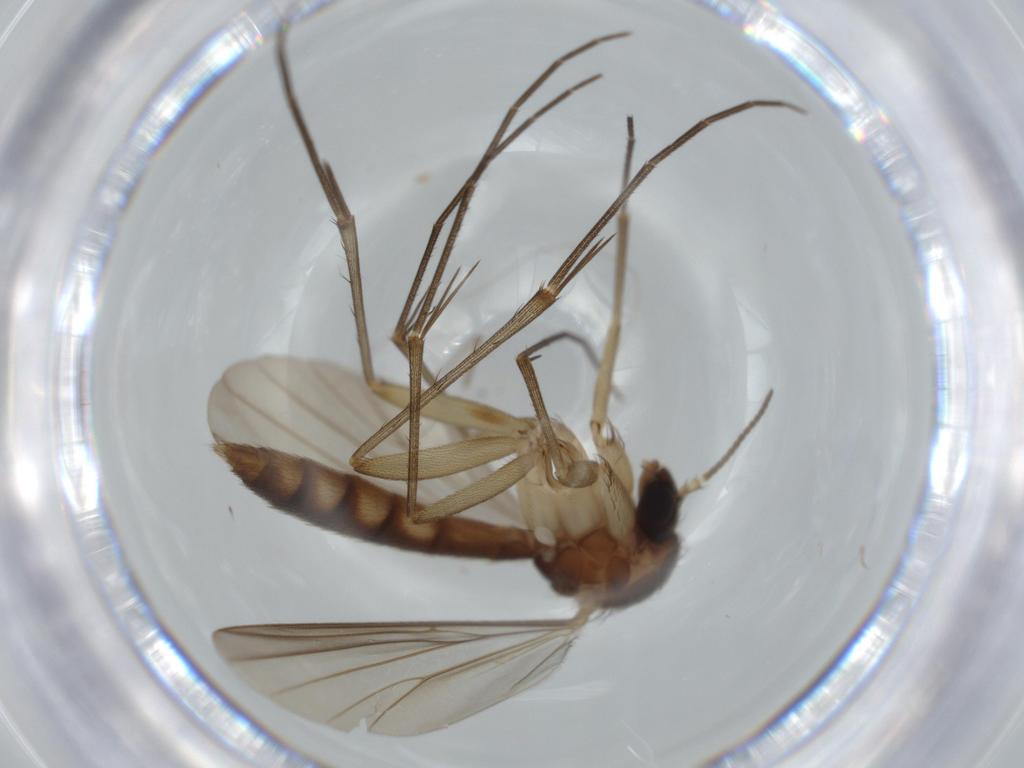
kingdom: Animalia
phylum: Arthropoda
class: Insecta
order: Diptera
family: Mycetophilidae
